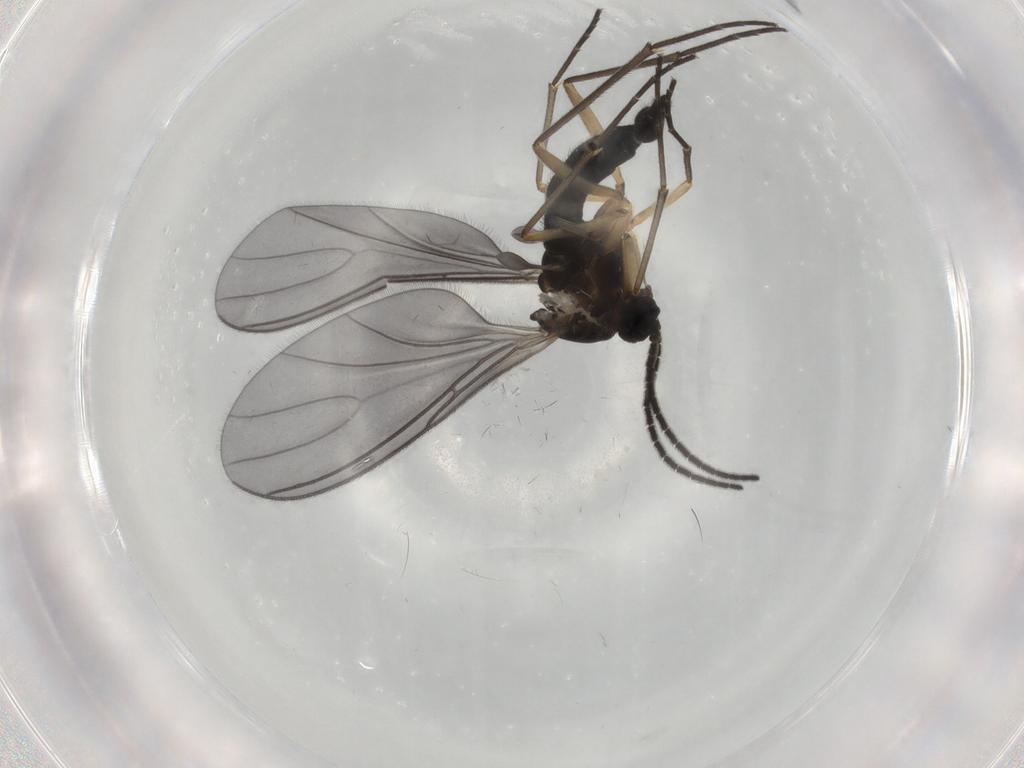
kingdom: Animalia
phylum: Arthropoda
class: Insecta
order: Diptera
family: Sciaridae
